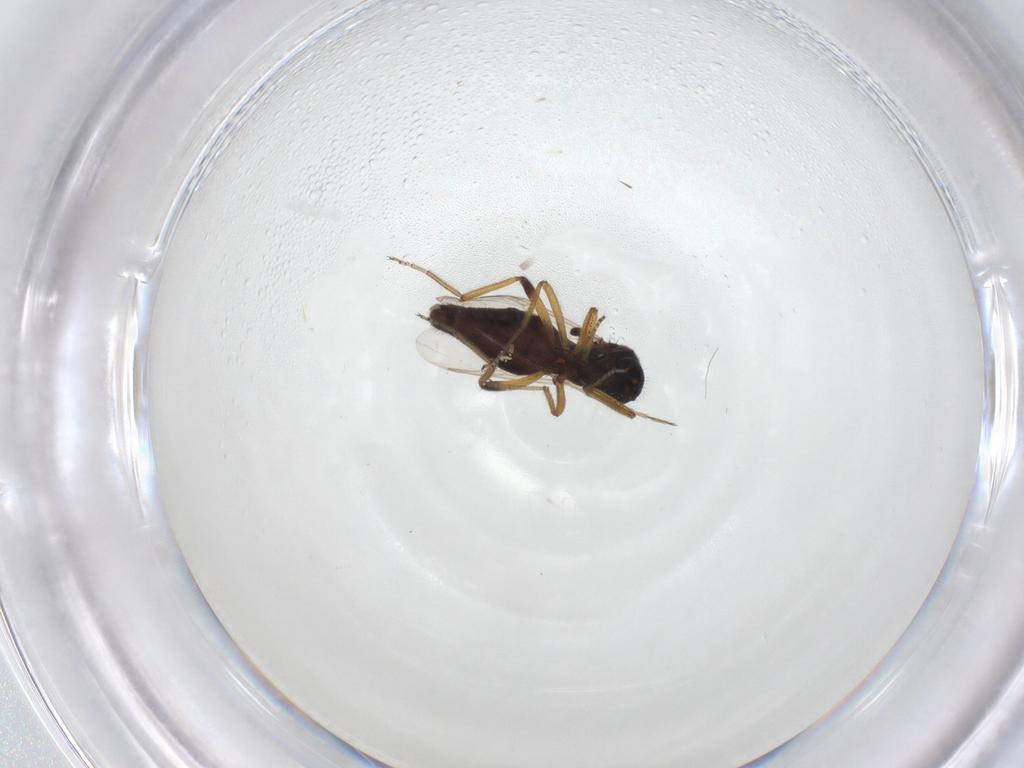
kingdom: Animalia
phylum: Arthropoda
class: Insecta
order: Diptera
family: Ceratopogonidae
